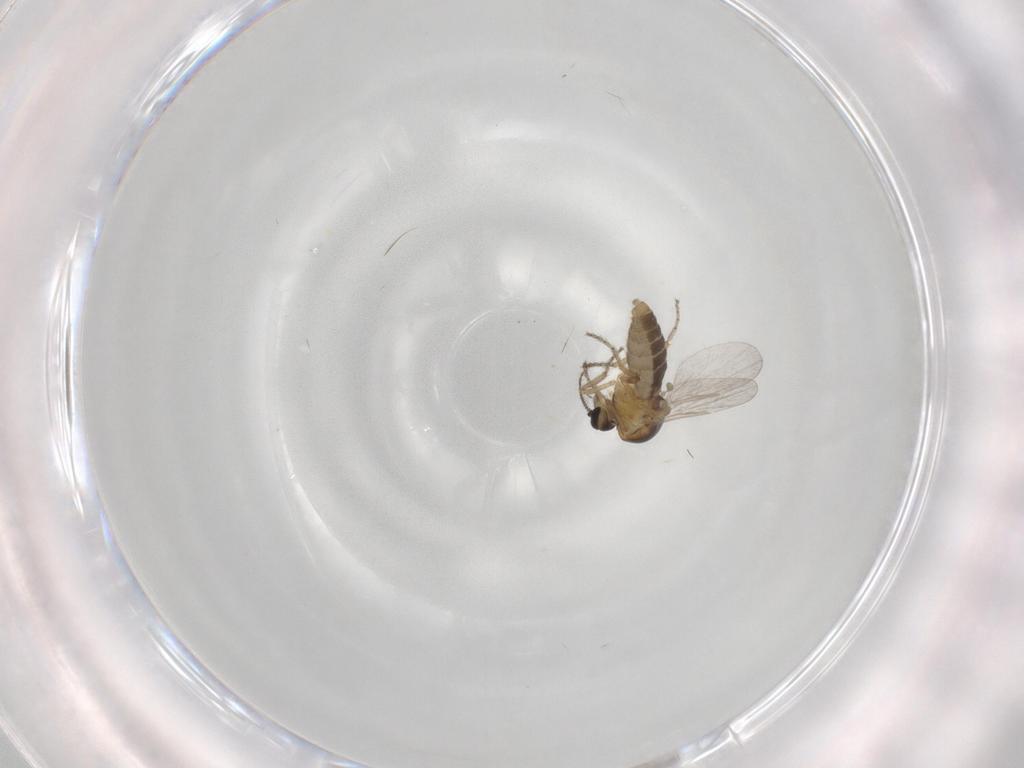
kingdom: Animalia
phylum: Arthropoda
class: Insecta
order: Diptera
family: Ceratopogonidae
